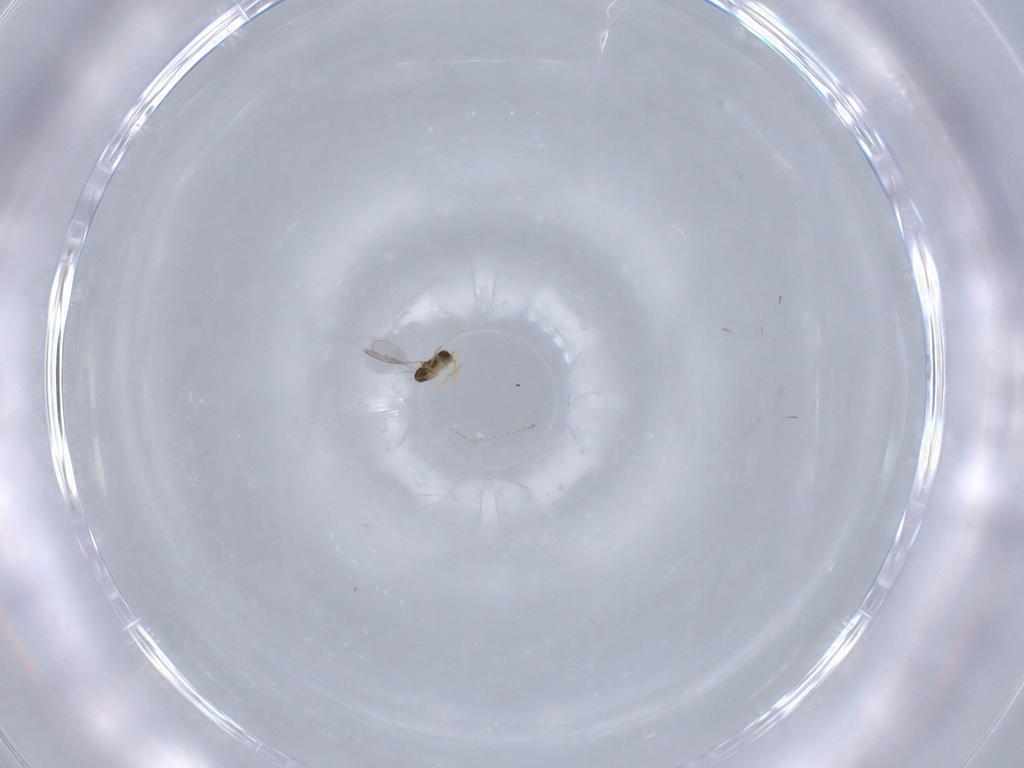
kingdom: Animalia
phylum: Arthropoda
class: Insecta
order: Hymenoptera
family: Aphelinidae
